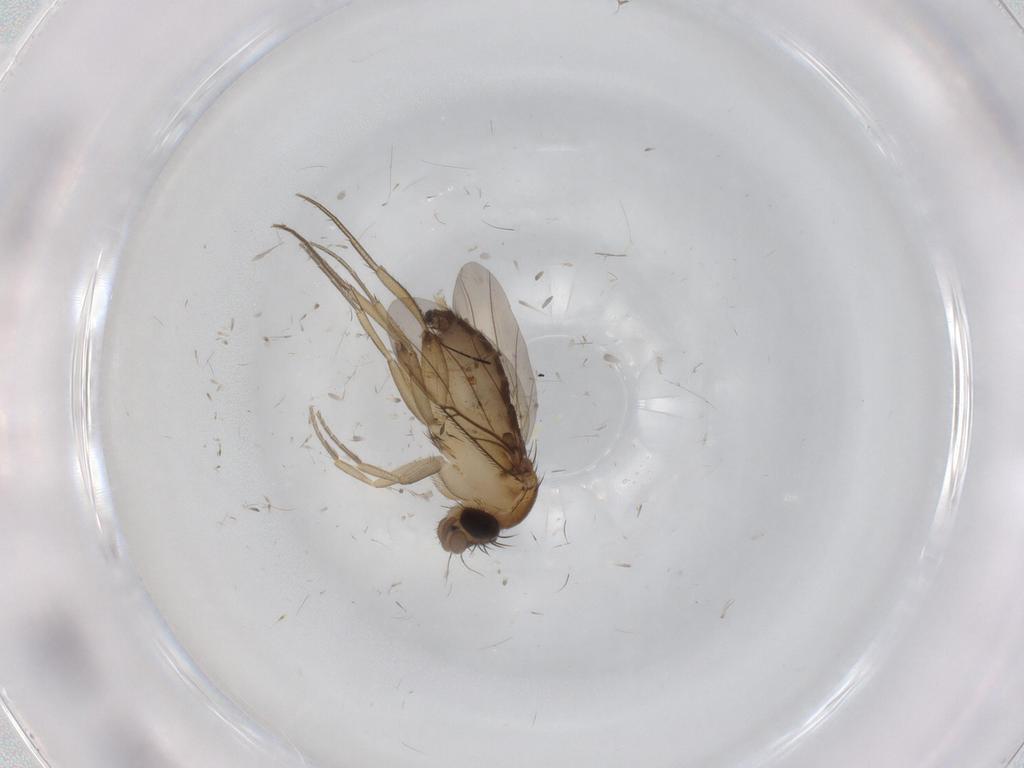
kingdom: Animalia
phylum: Arthropoda
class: Insecta
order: Diptera
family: Phoridae
